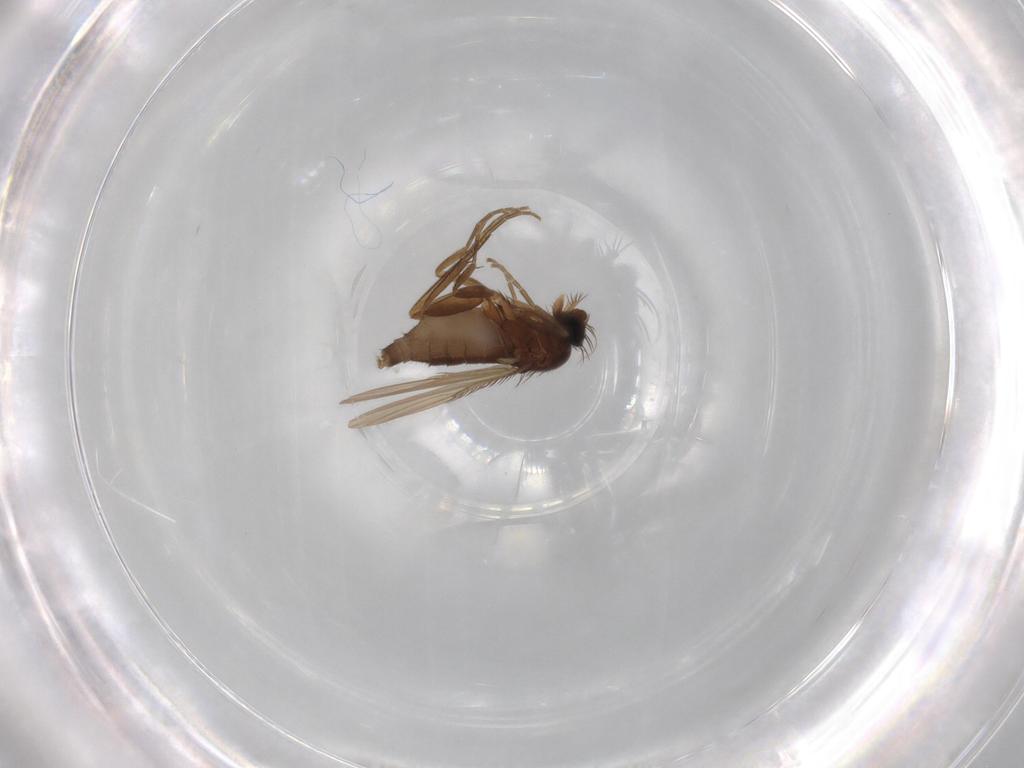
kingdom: Animalia
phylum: Arthropoda
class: Insecta
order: Diptera
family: Phoridae
